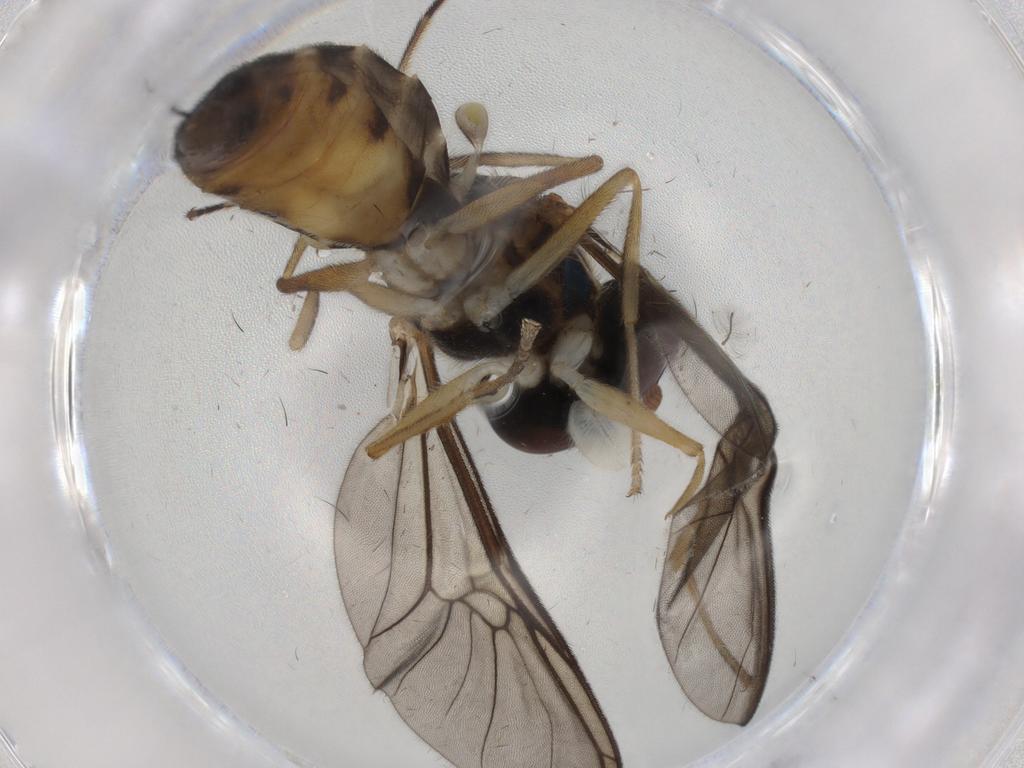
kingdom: Animalia
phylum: Arthropoda
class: Insecta
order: Diptera
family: Stratiomyidae
